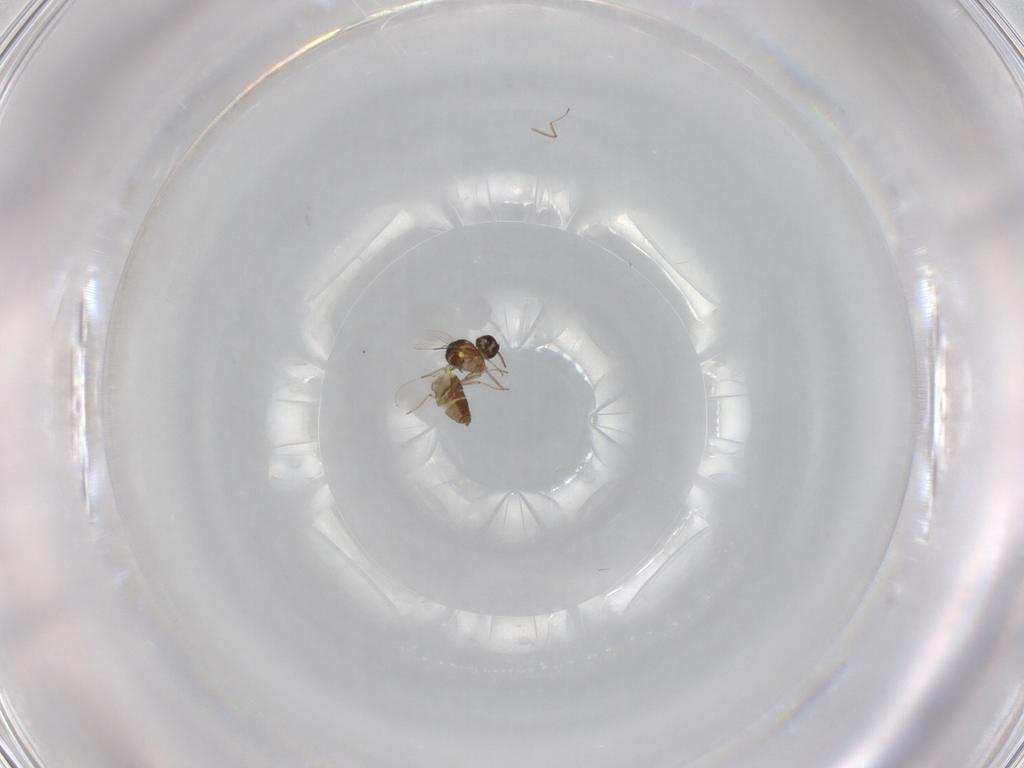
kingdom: Animalia
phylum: Arthropoda
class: Insecta
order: Diptera
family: Ceratopogonidae
